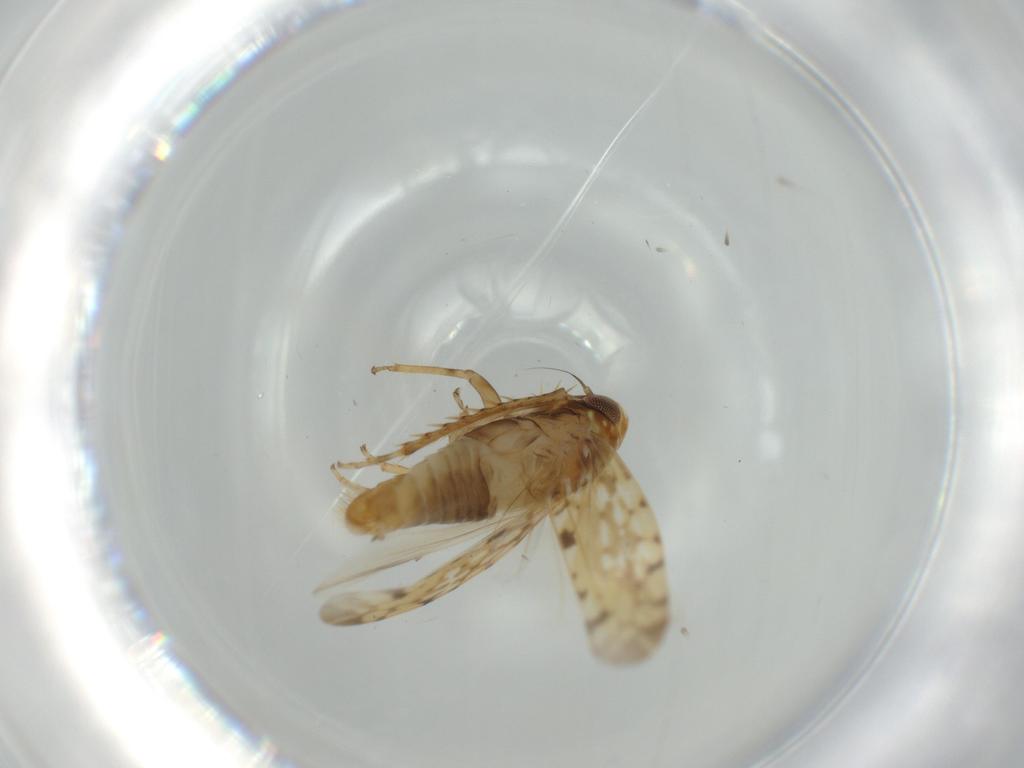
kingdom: Animalia
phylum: Arthropoda
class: Insecta
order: Hemiptera
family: Cicadellidae
